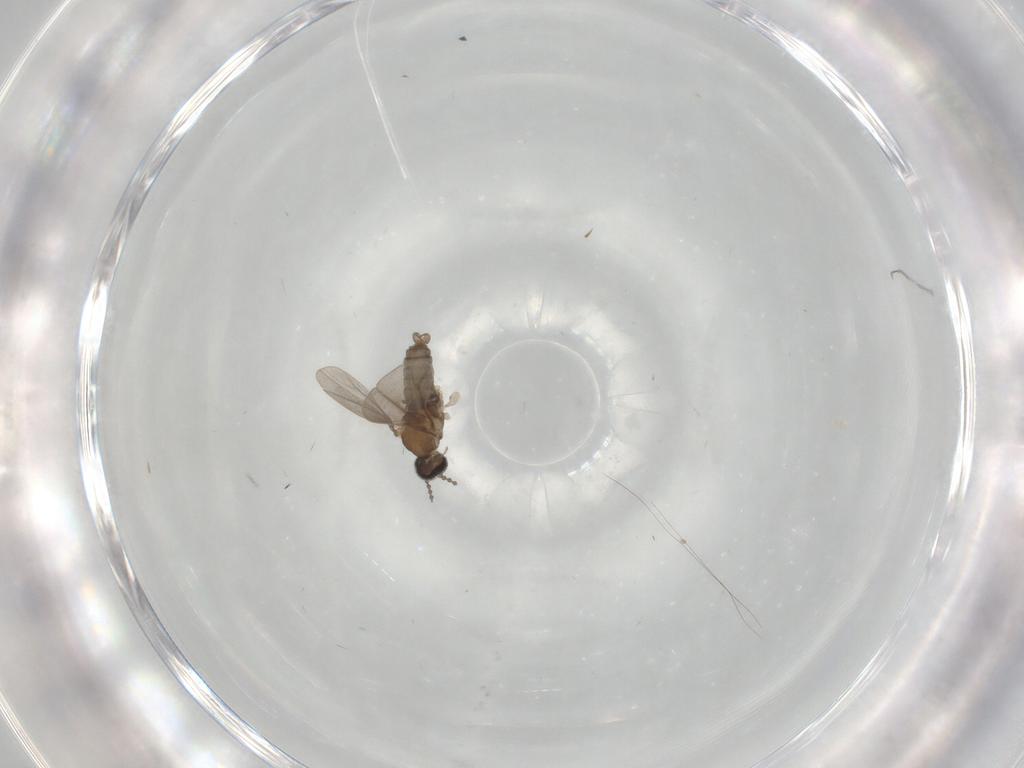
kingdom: Animalia
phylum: Arthropoda
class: Insecta
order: Diptera
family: Cecidomyiidae
